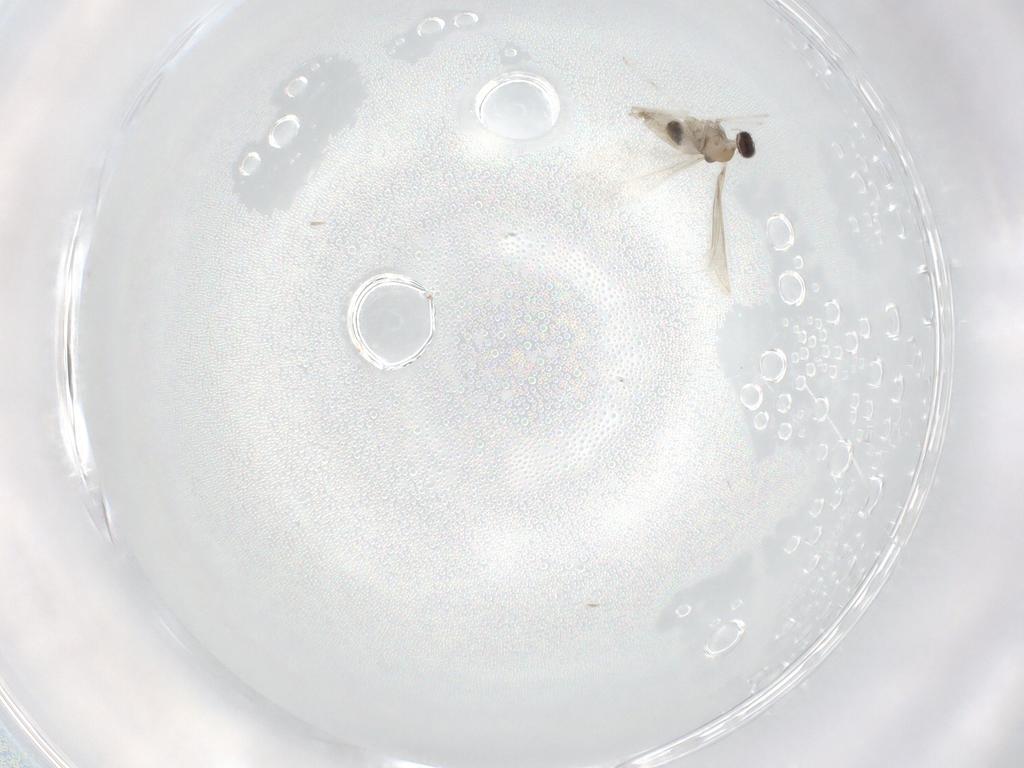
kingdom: Animalia
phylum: Arthropoda
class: Insecta
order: Diptera
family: Cecidomyiidae
